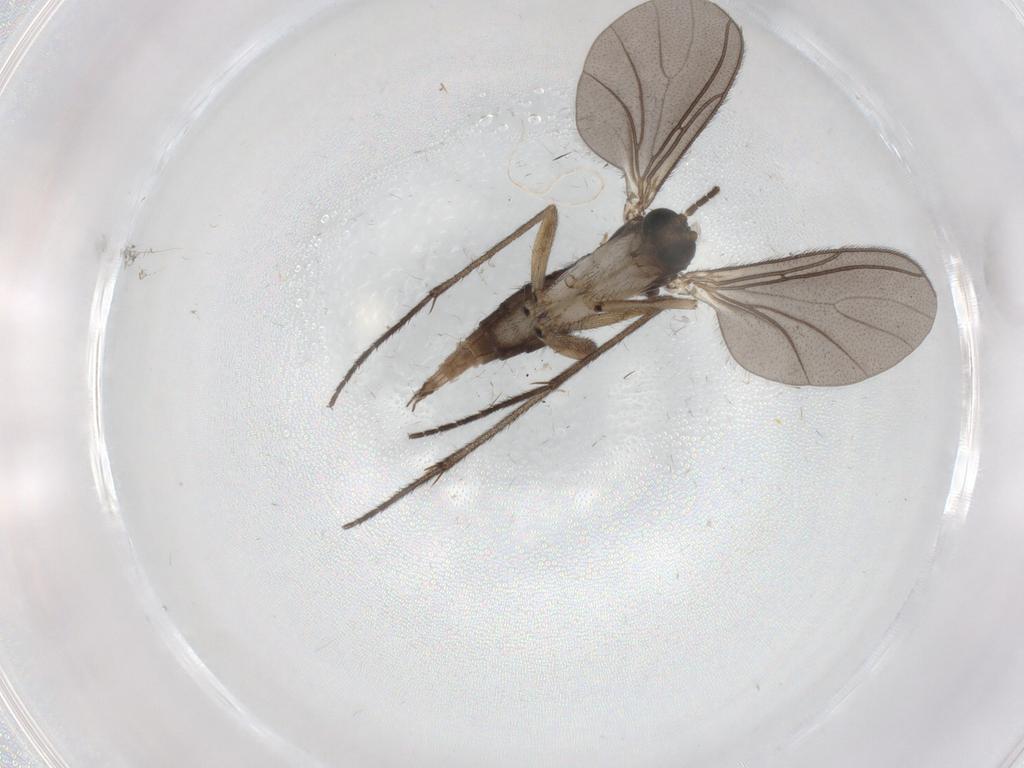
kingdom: Animalia
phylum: Arthropoda
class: Insecta
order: Diptera
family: Sciaridae
